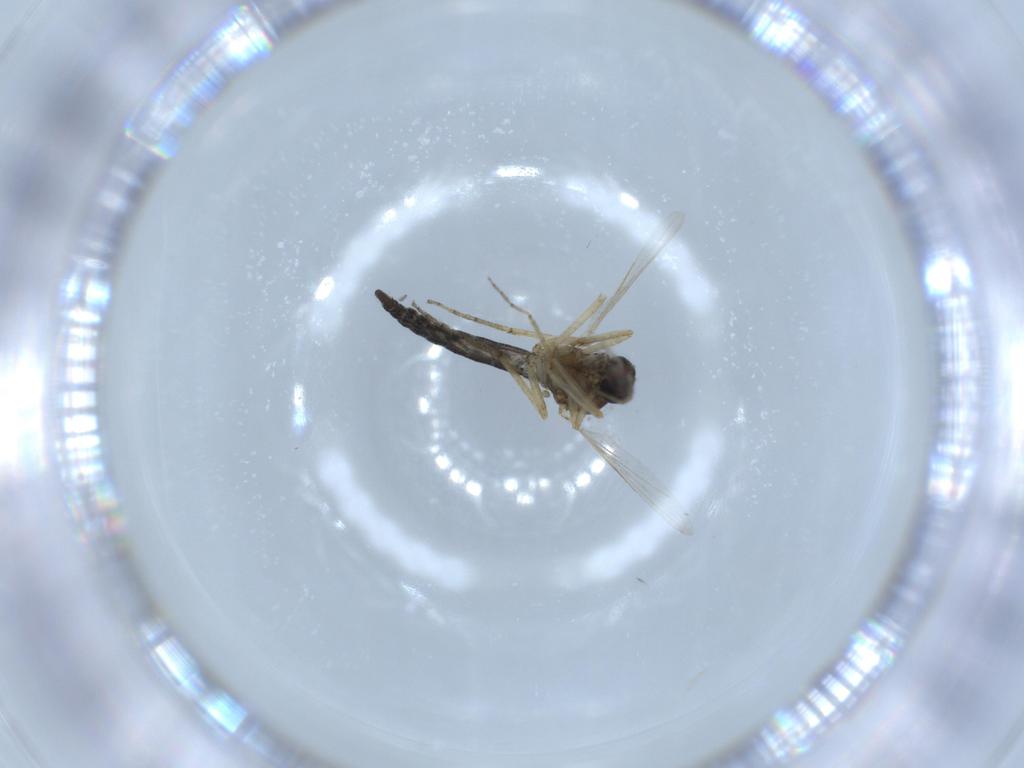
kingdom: Animalia
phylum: Arthropoda
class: Insecta
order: Diptera
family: Ceratopogonidae
